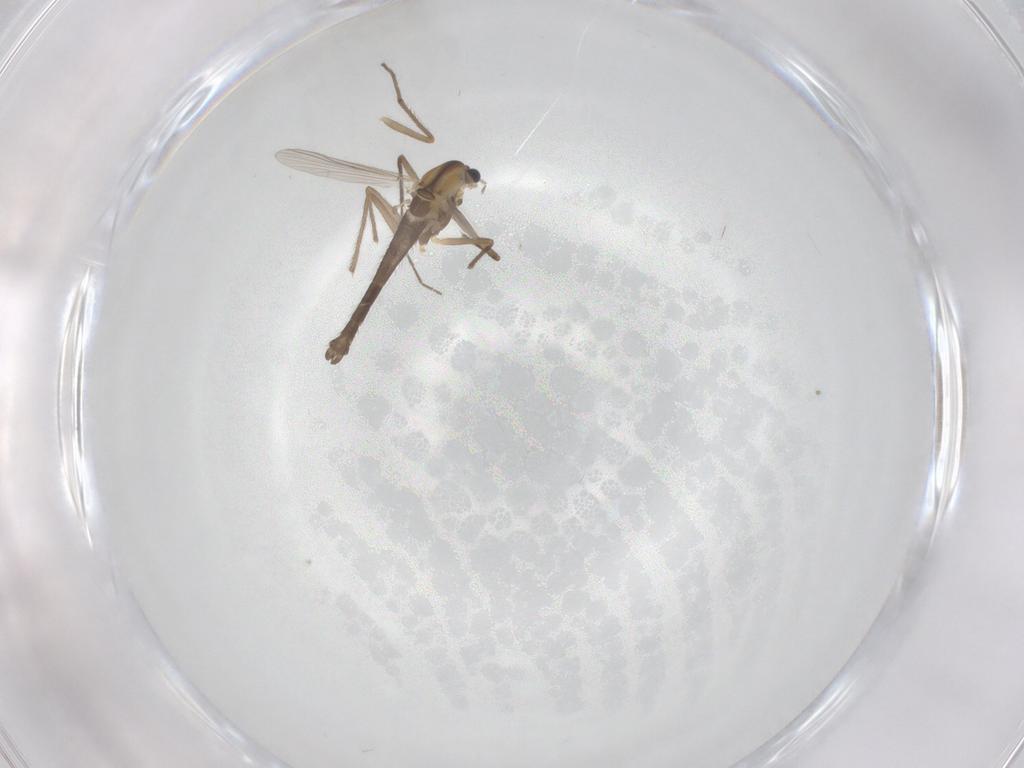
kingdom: Animalia
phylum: Arthropoda
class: Insecta
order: Diptera
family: Chironomidae
